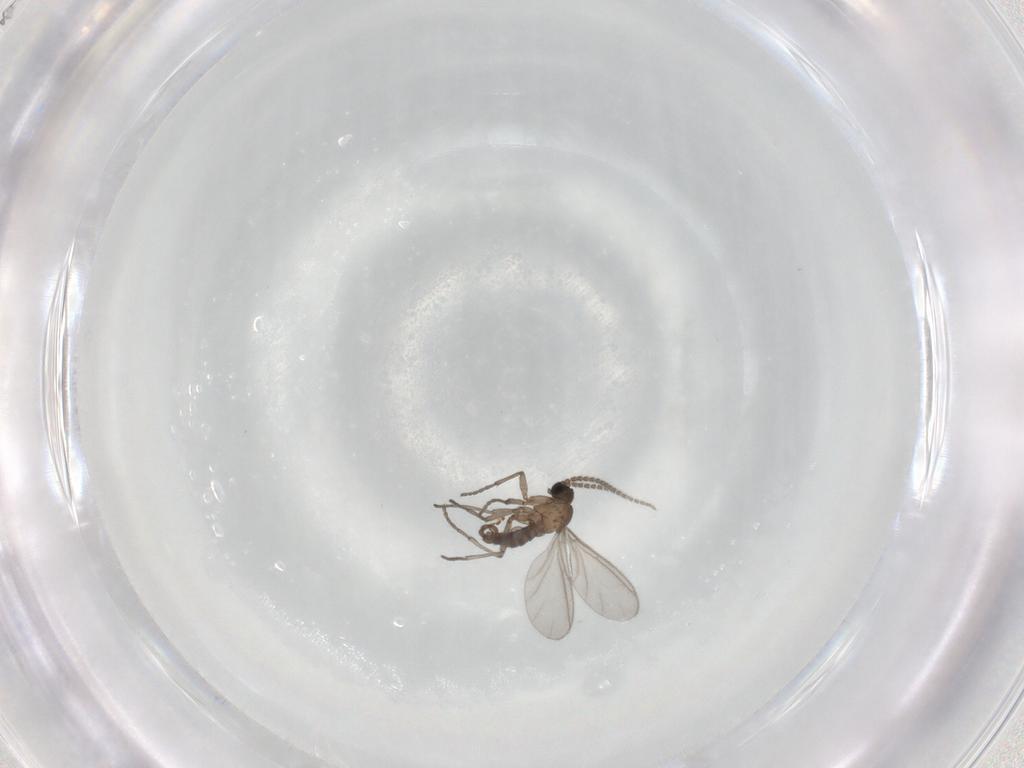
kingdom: Animalia
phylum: Arthropoda
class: Insecta
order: Diptera
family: Sciaridae
